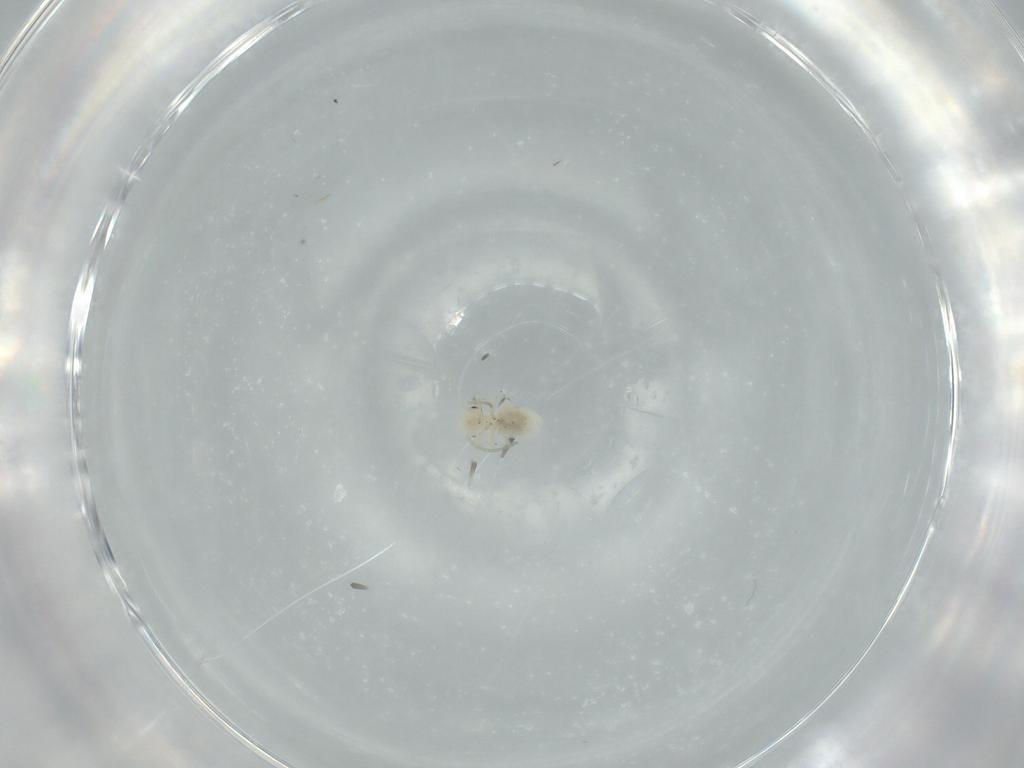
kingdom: Animalia
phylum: Arthropoda
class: Insecta
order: Psocodea
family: Caeciliusidae
